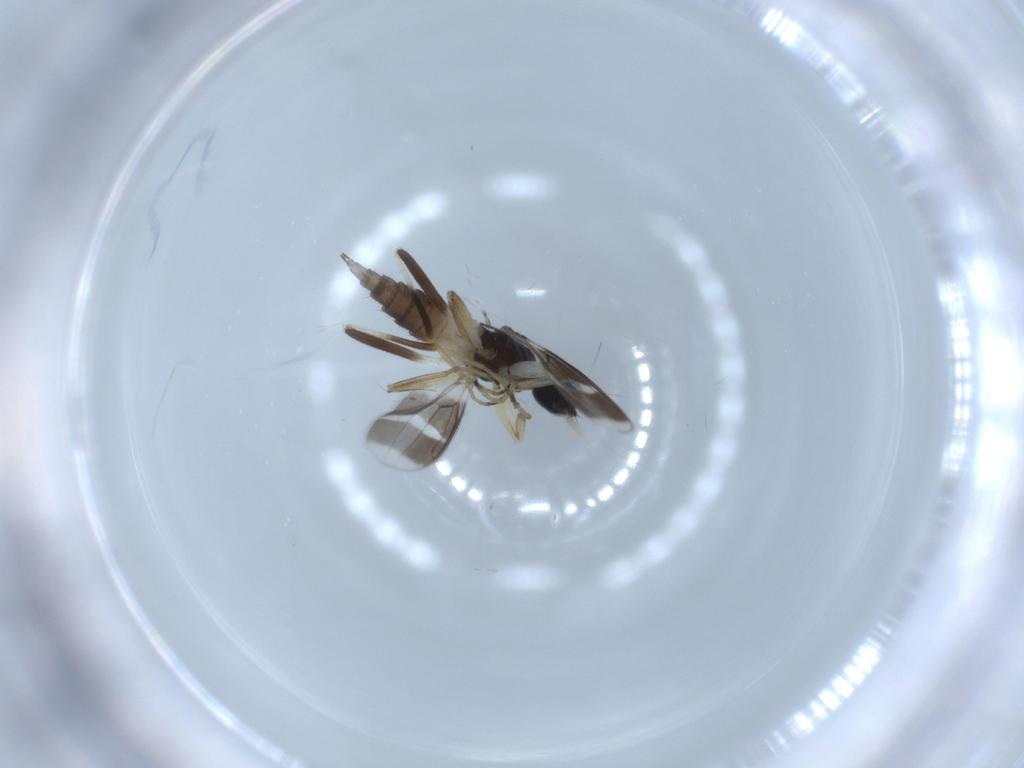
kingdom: Animalia
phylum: Arthropoda
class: Insecta
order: Diptera
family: Hybotidae
